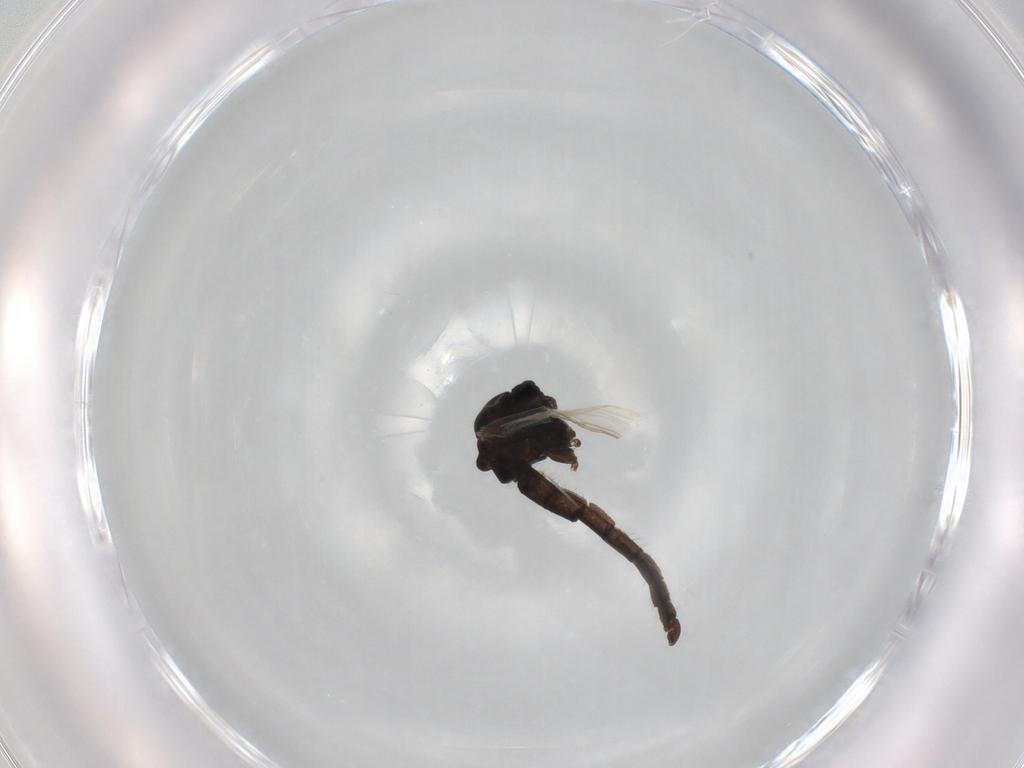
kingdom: Animalia
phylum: Arthropoda
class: Insecta
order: Diptera
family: Chironomidae
